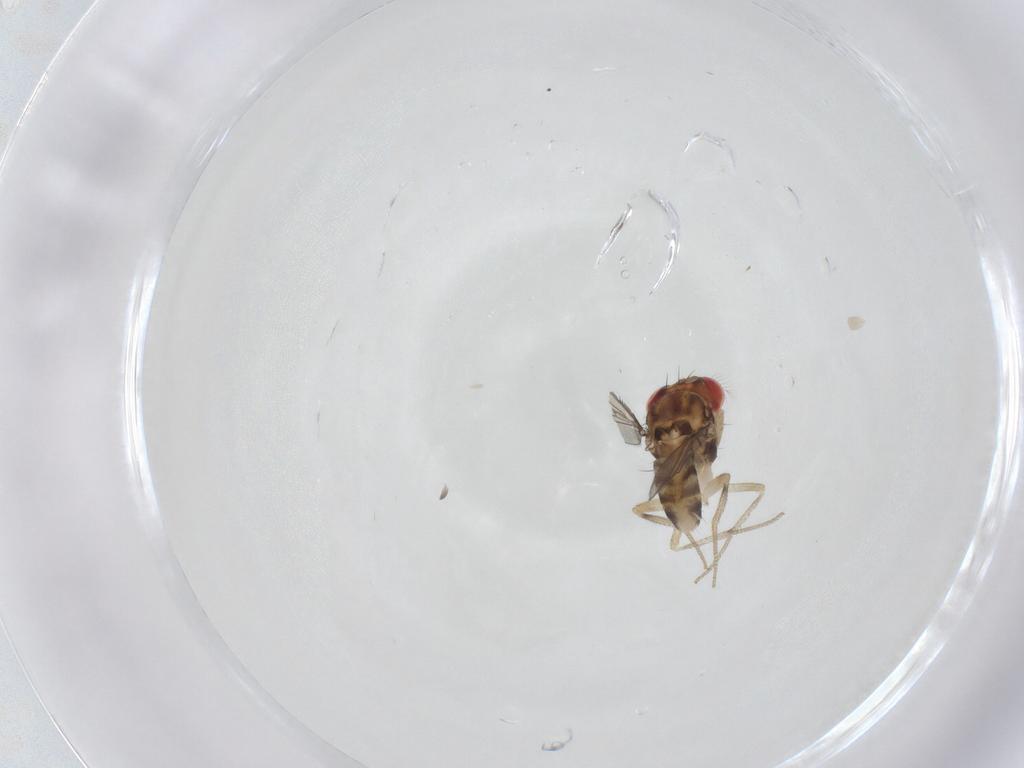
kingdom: Animalia
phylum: Arthropoda
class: Insecta
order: Diptera
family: Drosophilidae
